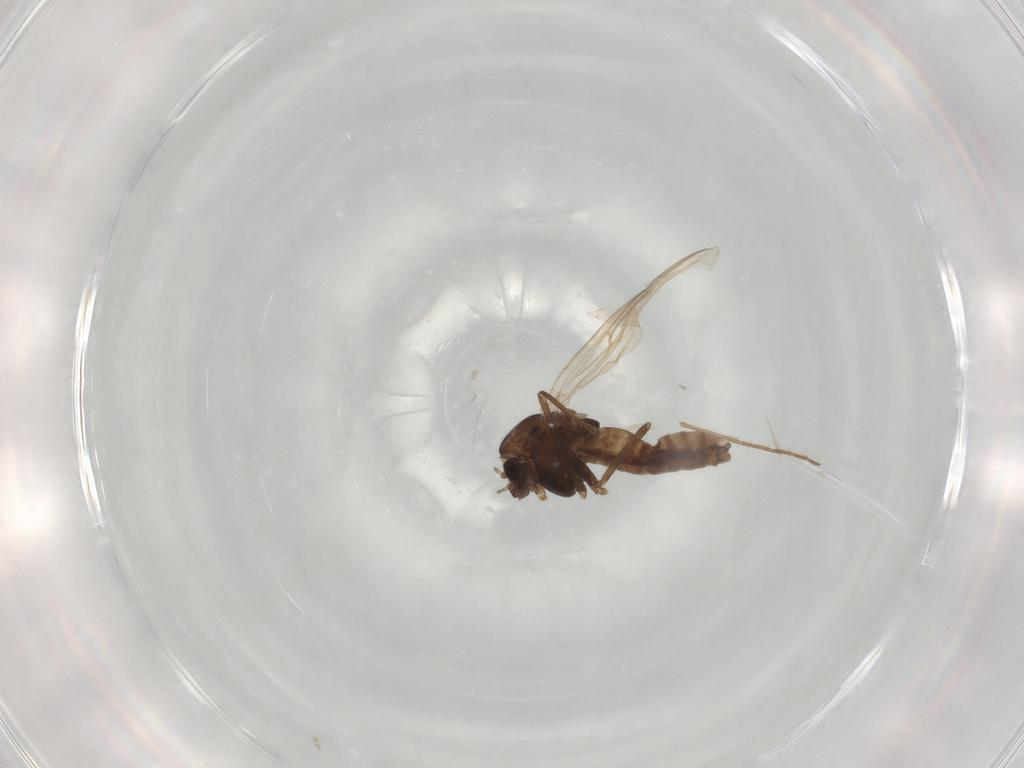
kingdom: Animalia
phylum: Arthropoda
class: Insecta
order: Diptera
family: Chironomidae
